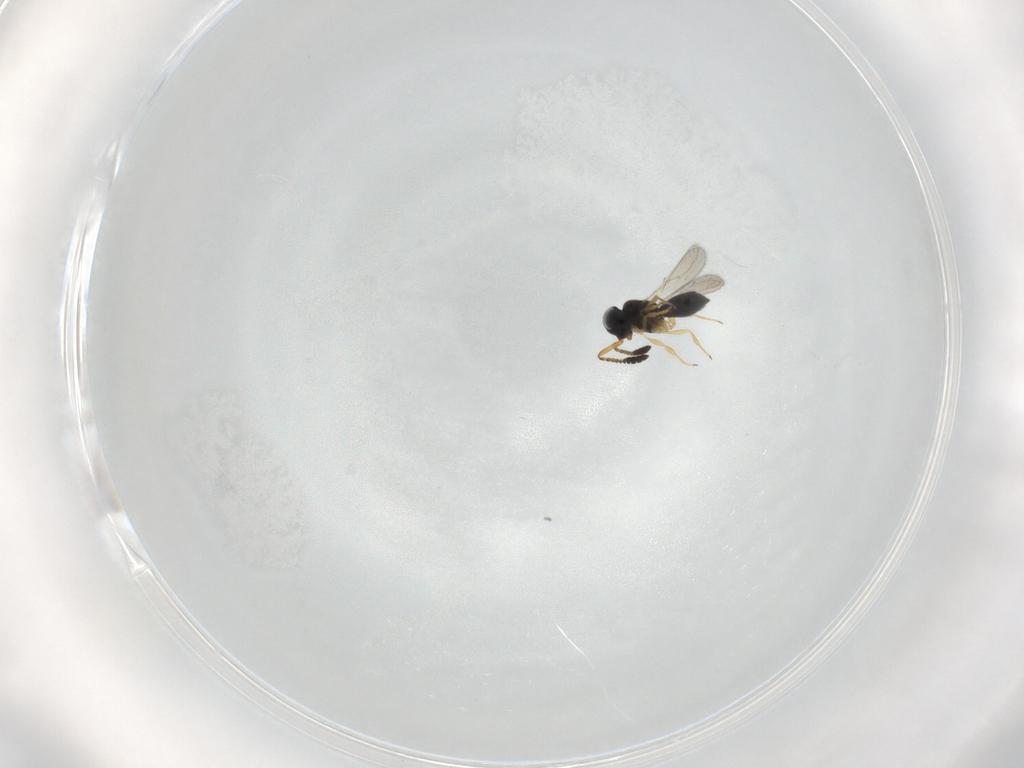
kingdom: Animalia
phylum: Arthropoda
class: Insecta
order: Hymenoptera
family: Scelionidae
